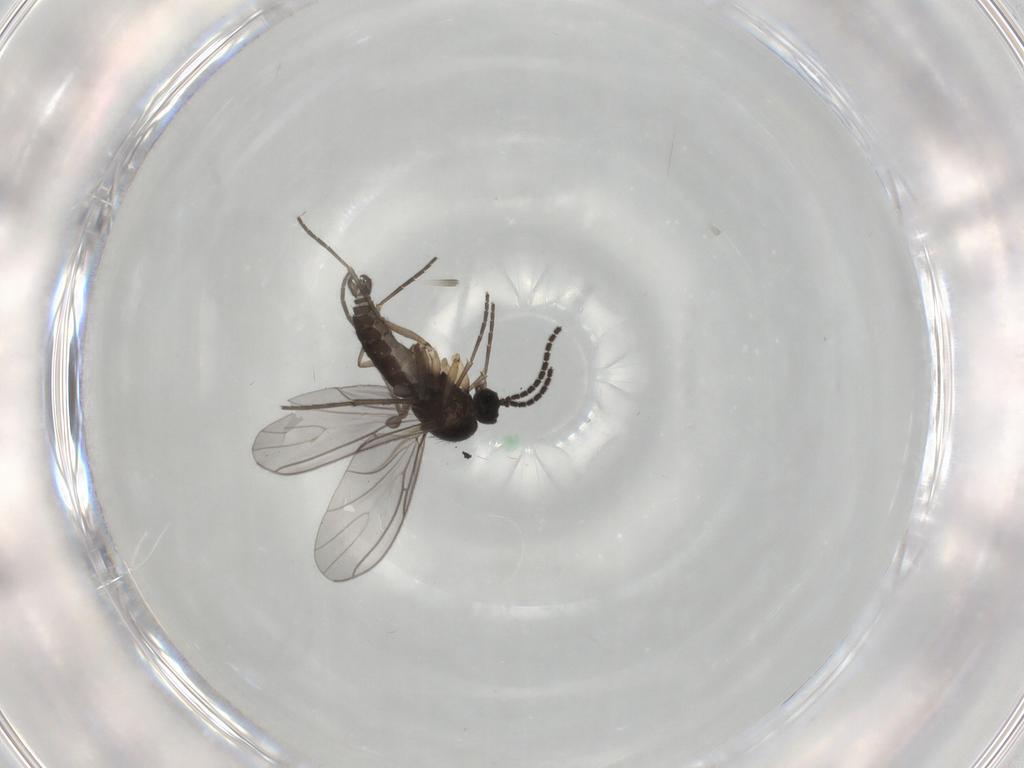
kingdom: Animalia
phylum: Arthropoda
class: Insecta
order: Diptera
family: Sciaridae
